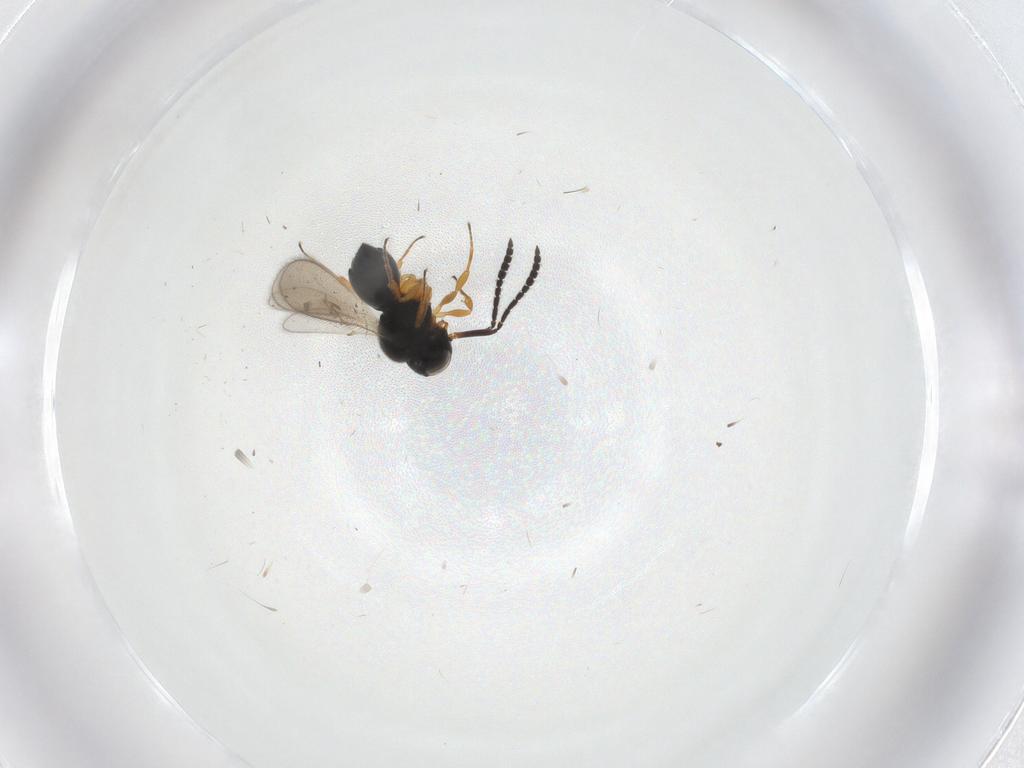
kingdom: Animalia
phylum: Arthropoda
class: Insecta
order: Hymenoptera
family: Scelionidae
